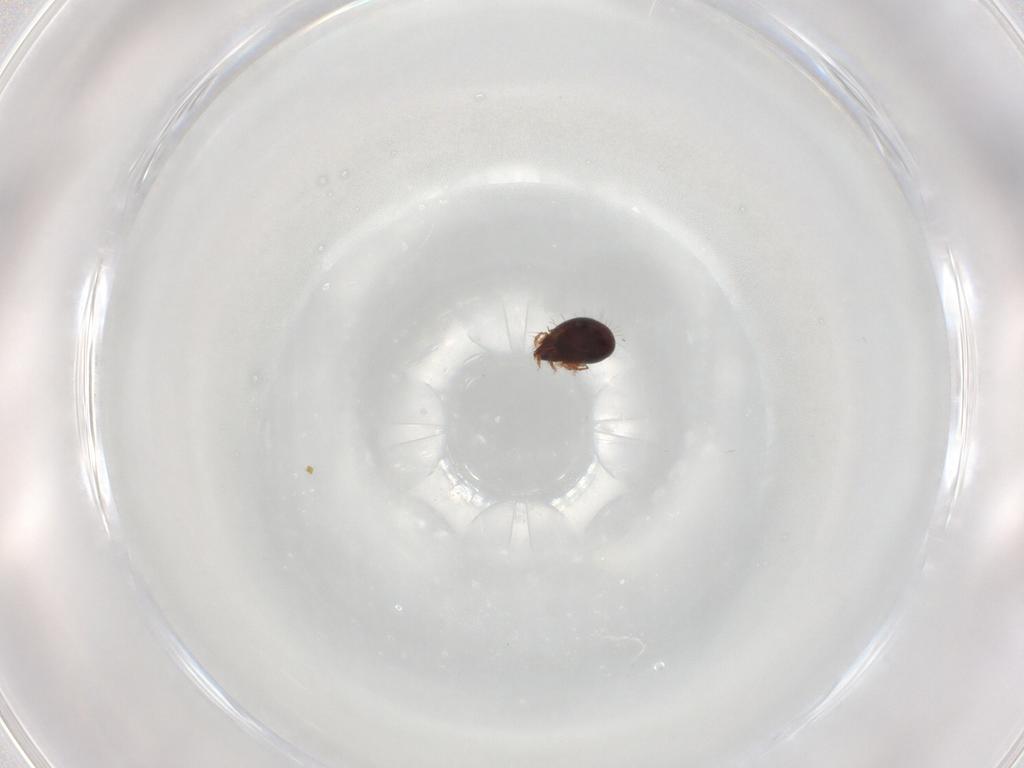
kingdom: Animalia
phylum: Arthropoda
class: Arachnida
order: Sarcoptiformes
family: Humerobatidae
